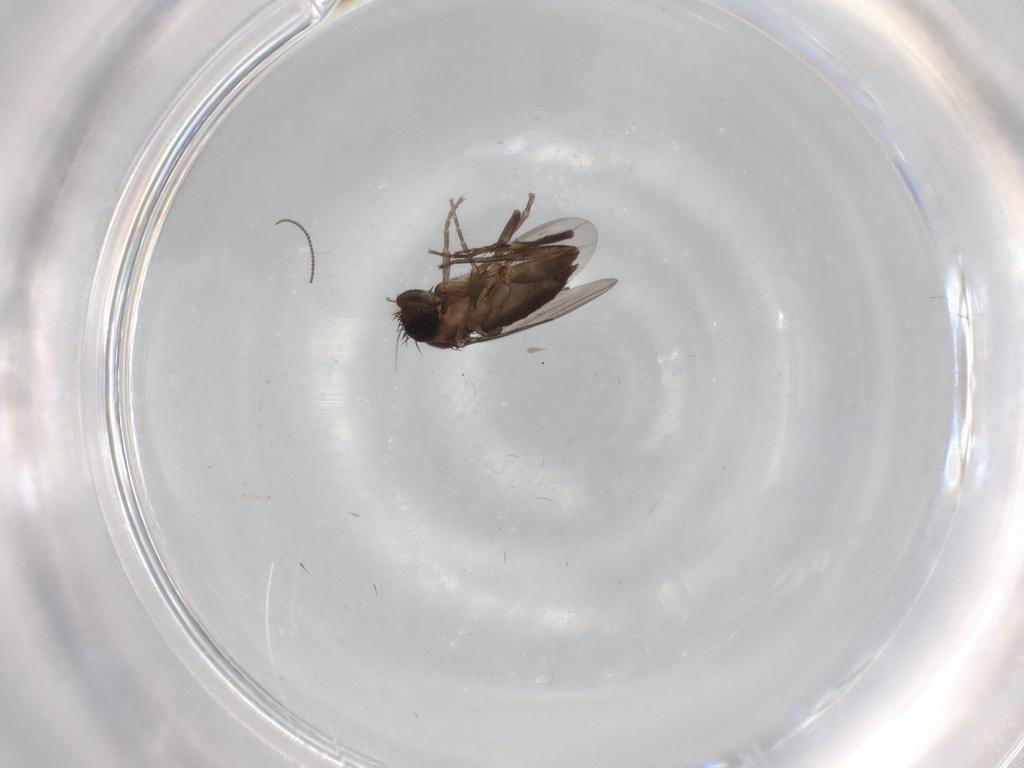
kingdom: Animalia
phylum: Arthropoda
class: Insecta
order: Diptera
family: Phoridae
